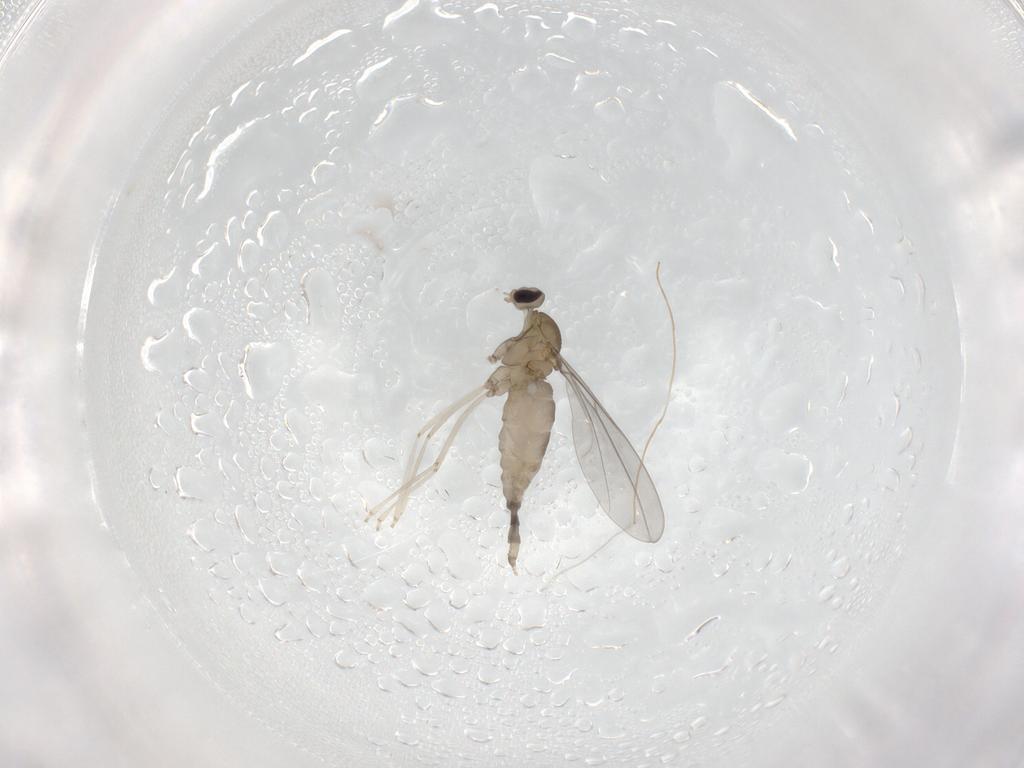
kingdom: Animalia
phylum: Arthropoda
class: Insecta
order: Diptera
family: Cecidomyiidae
